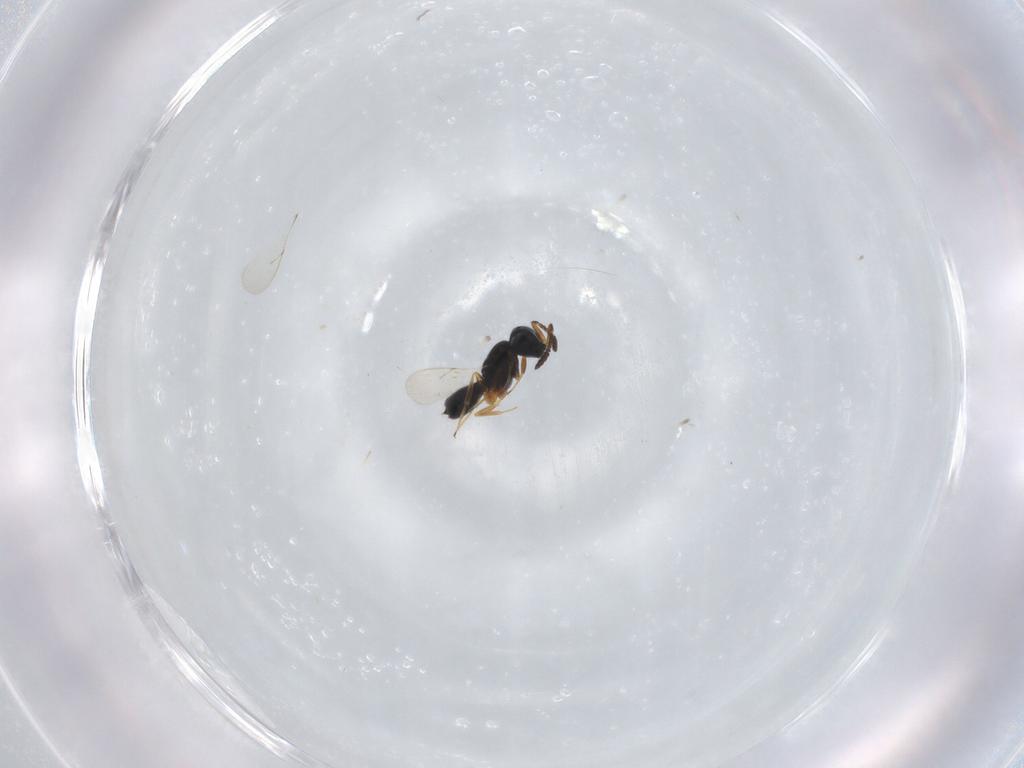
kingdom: Animalia
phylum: Arthropoda
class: Insecta
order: Hymenoptera
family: Scelionidae
